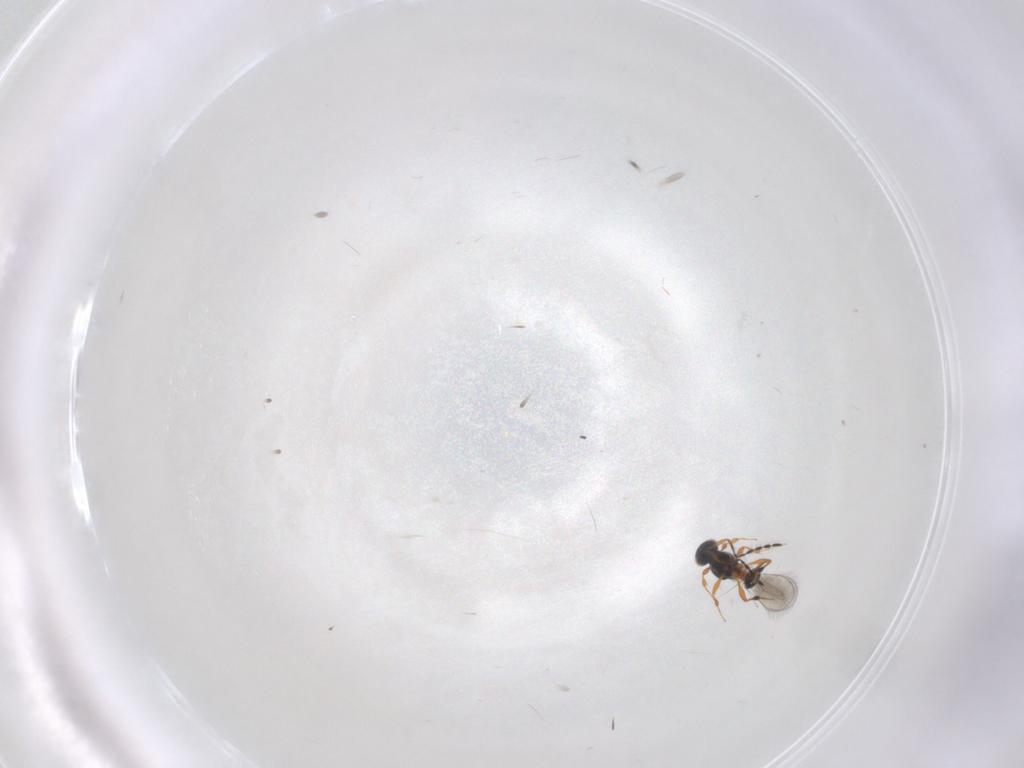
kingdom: Animalia
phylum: Arthropoda
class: Insecta
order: Hymenoptera
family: Platygastridae
